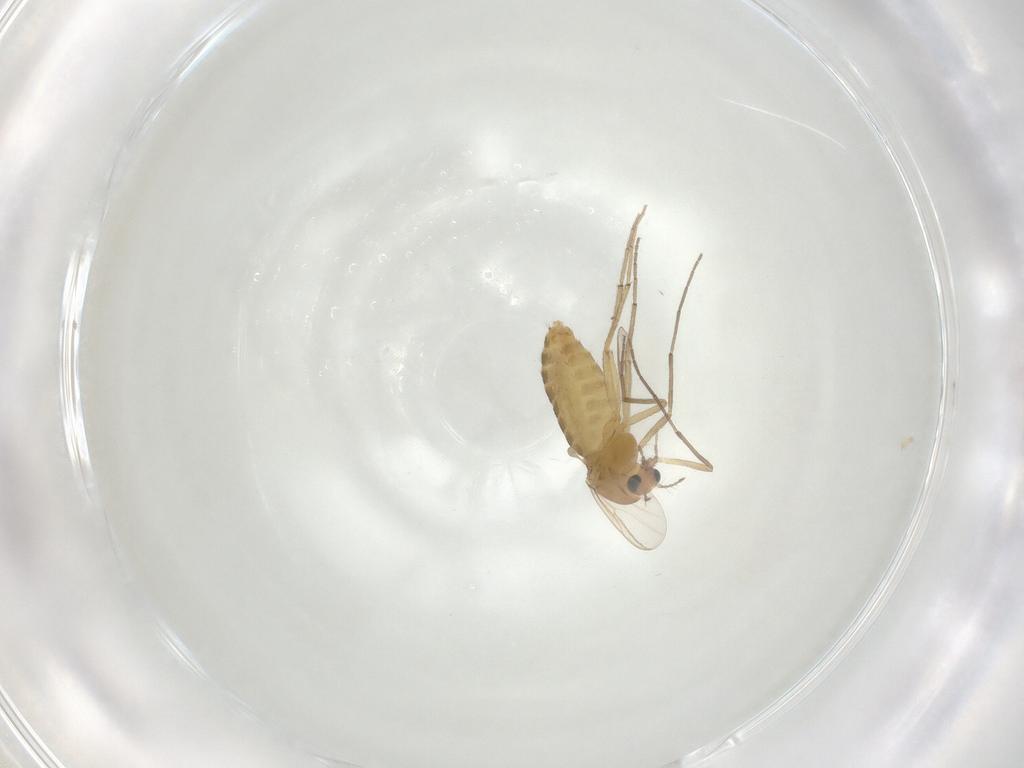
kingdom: Animalia
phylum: Arthropoda
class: Insecta
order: Diptera
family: Chironomidae
